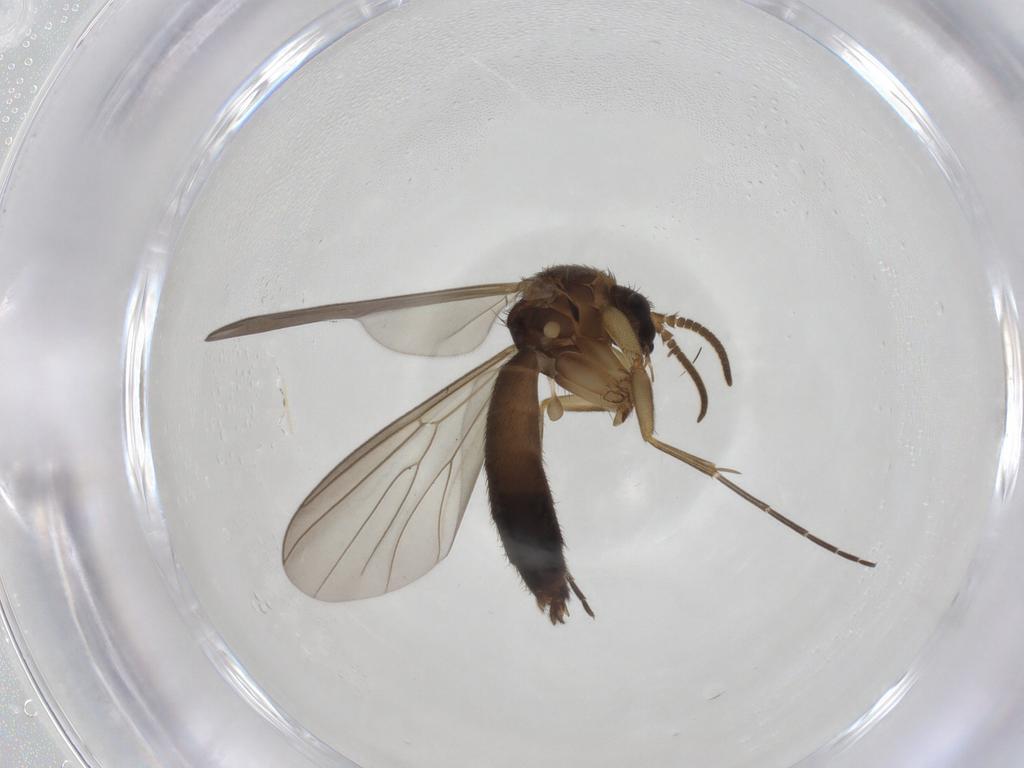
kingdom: Animalia
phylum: Arthropoda
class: Insecta
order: Diptera
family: Mycetophilidae
